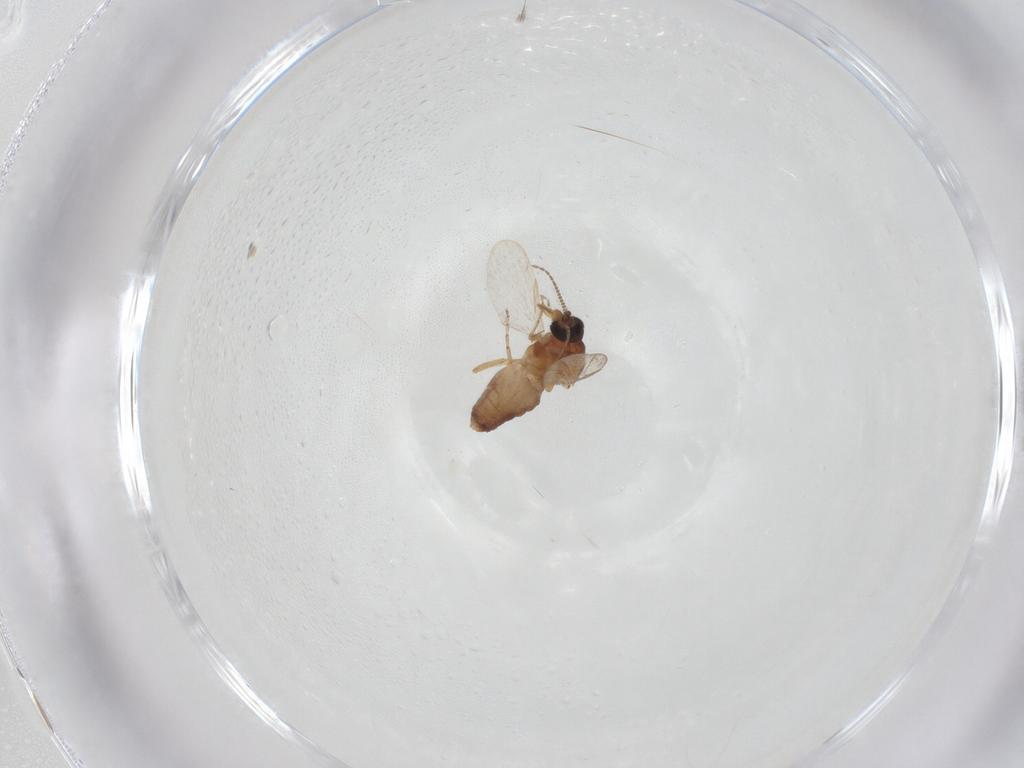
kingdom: Animalia
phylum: Arthropoda
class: Insecta
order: Diptera
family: Ceratopogonidae
